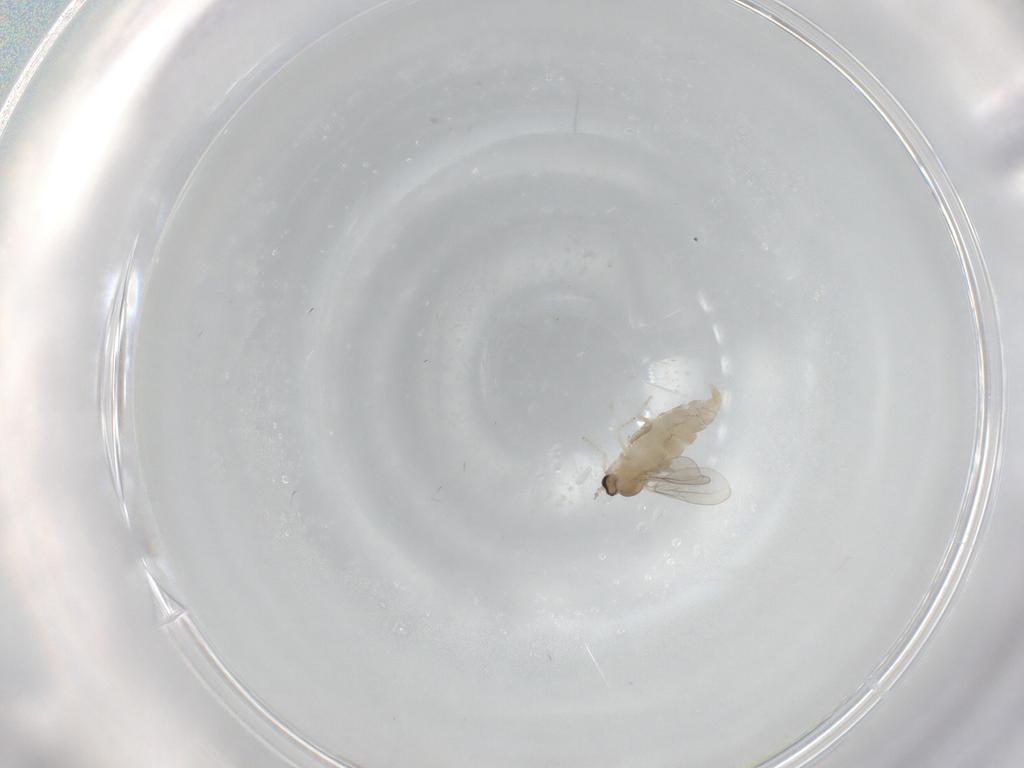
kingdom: Animalia
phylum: Arthropoda
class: Insecta
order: Diptera
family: Cecidomyiidae
